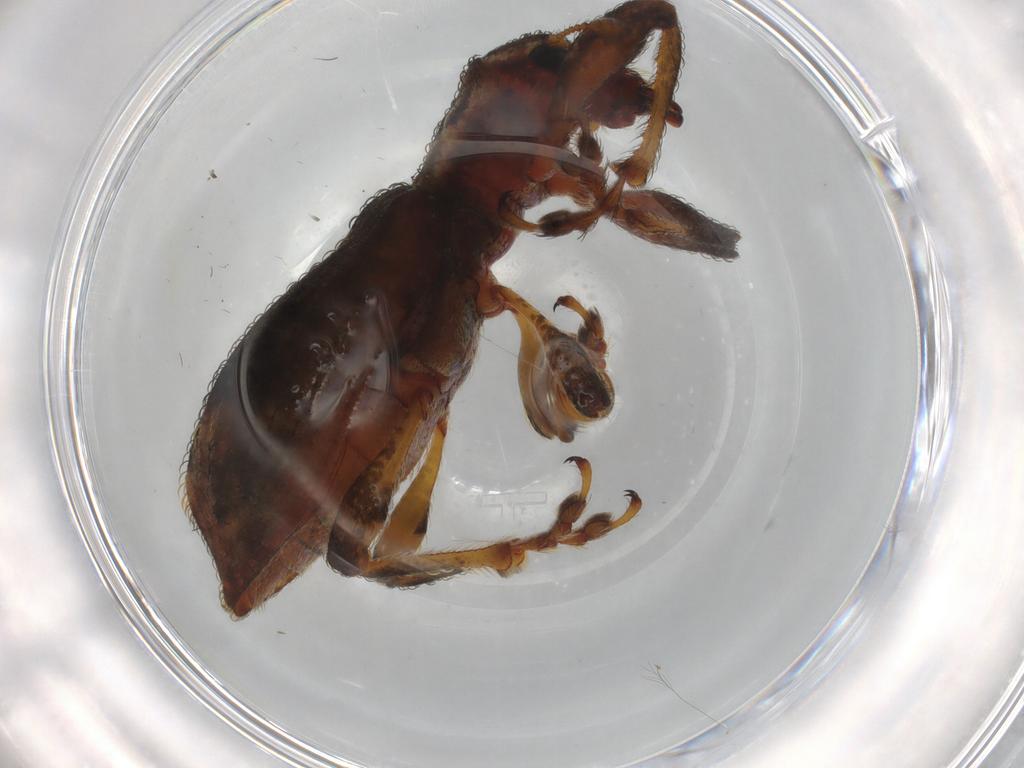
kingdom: Animalia
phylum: Arthropoda
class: Insecta
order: Coleoptera
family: Curculionidae
